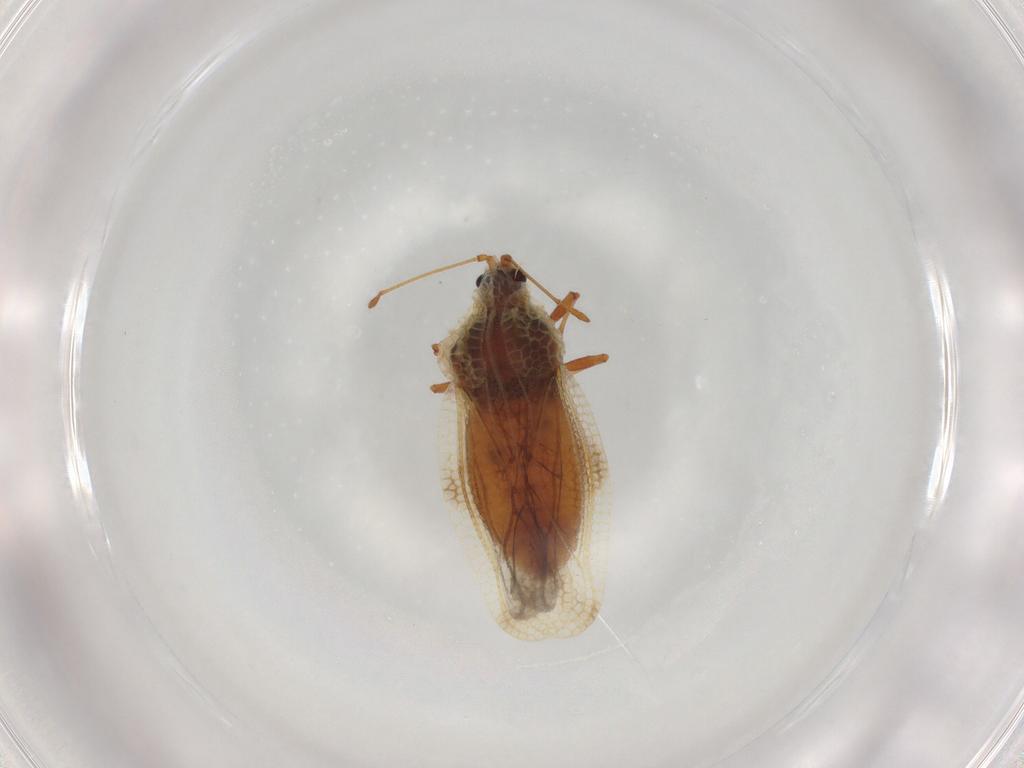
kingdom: Animalia
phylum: Arthropoda
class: Insecta
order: Hemiptera
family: Tingidae
